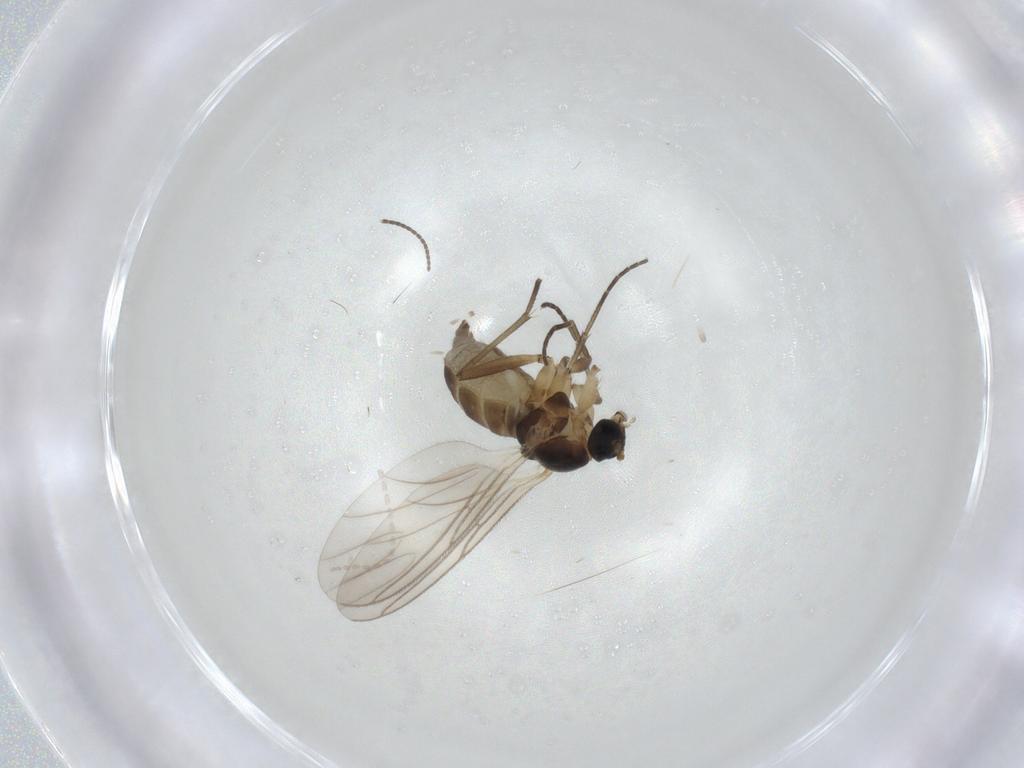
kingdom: Animalia
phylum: Arthropoda
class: Insecta
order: Diptera
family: Cecidomyiidae
